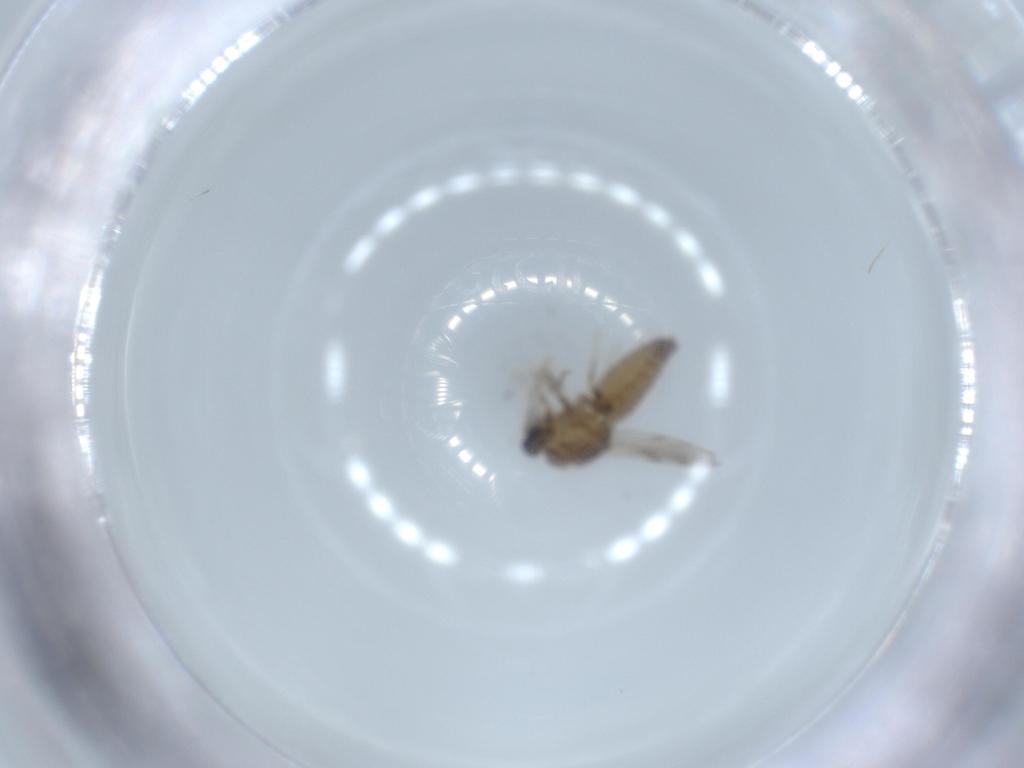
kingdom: Animalia
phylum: Arthropoda
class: Insecta
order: Diptera
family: Ceratopogonidae
